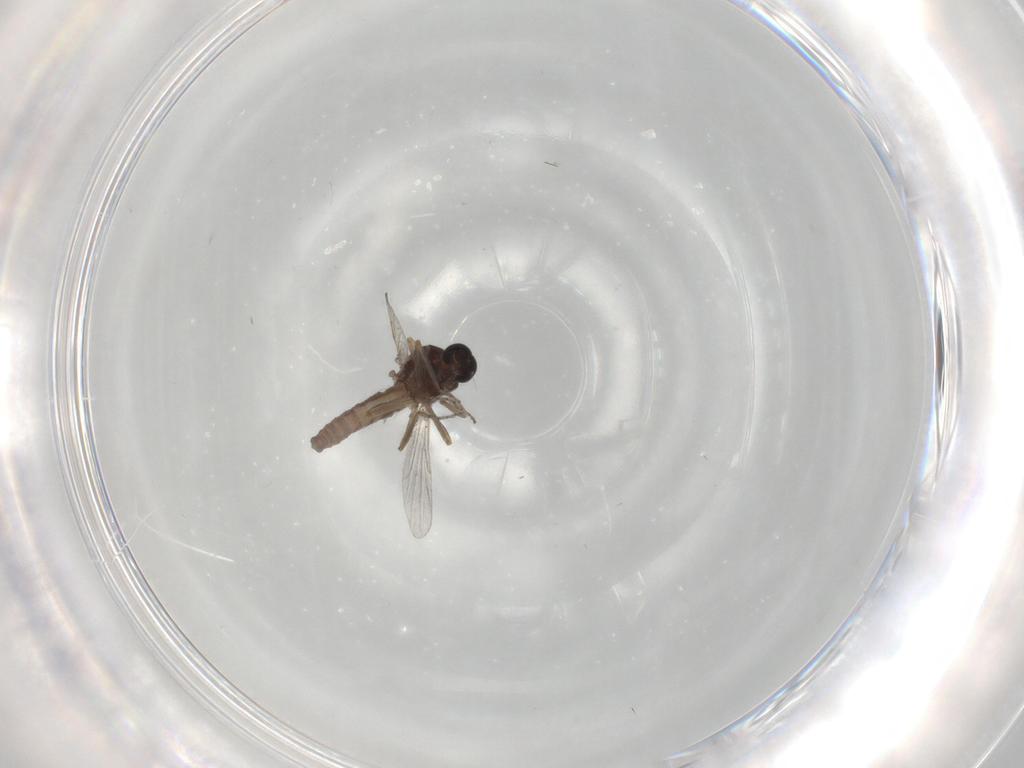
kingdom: Animalia
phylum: Arthropoda
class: Insecta
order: Diptera
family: Ceratopogonidae
